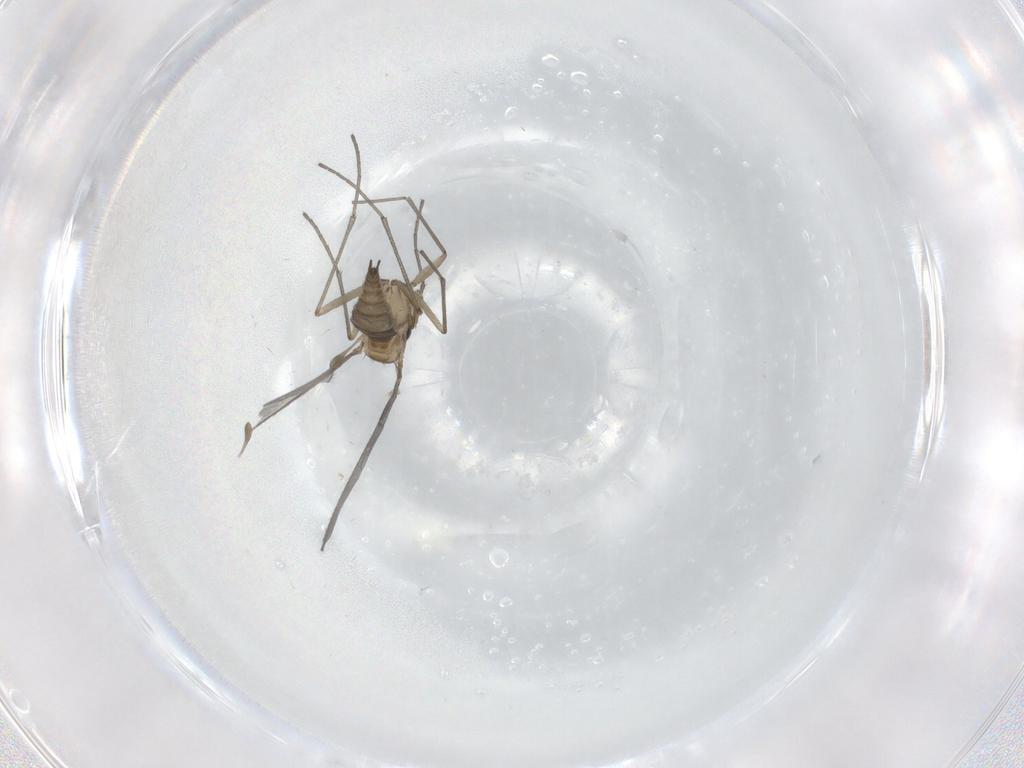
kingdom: Animalia
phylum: Arthropoda
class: Insecta
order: Diptera
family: Sciaridae
